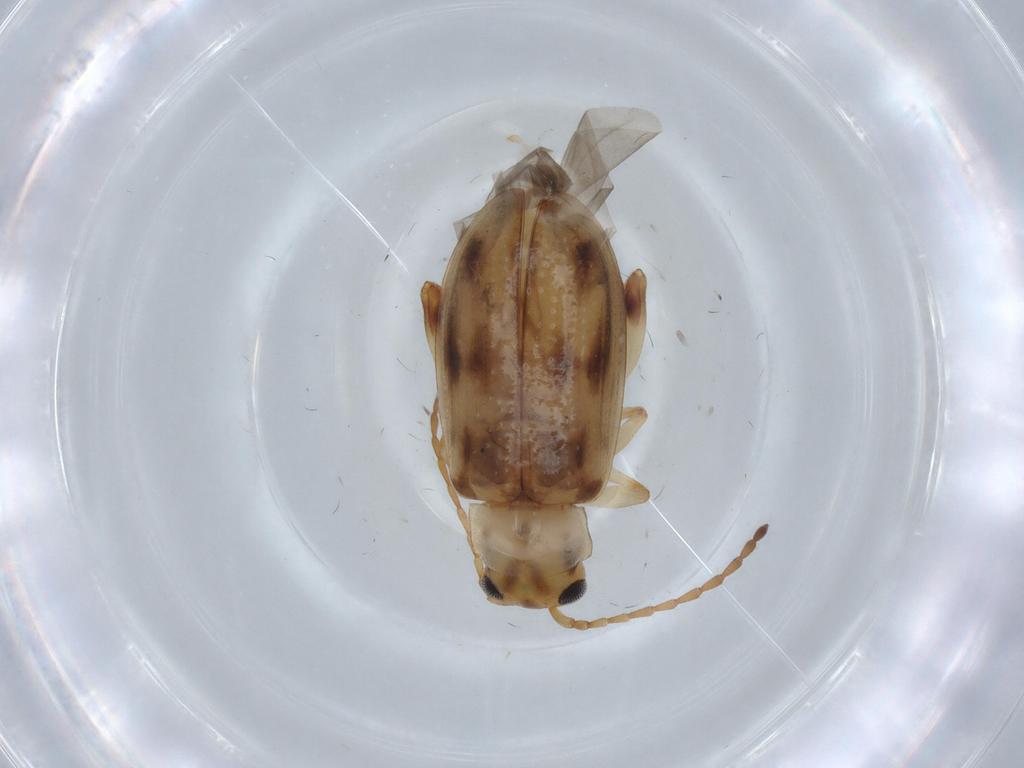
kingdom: Animalia
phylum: Arthropoda
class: Insecta
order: Coleoptera
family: Chrysomelidae
